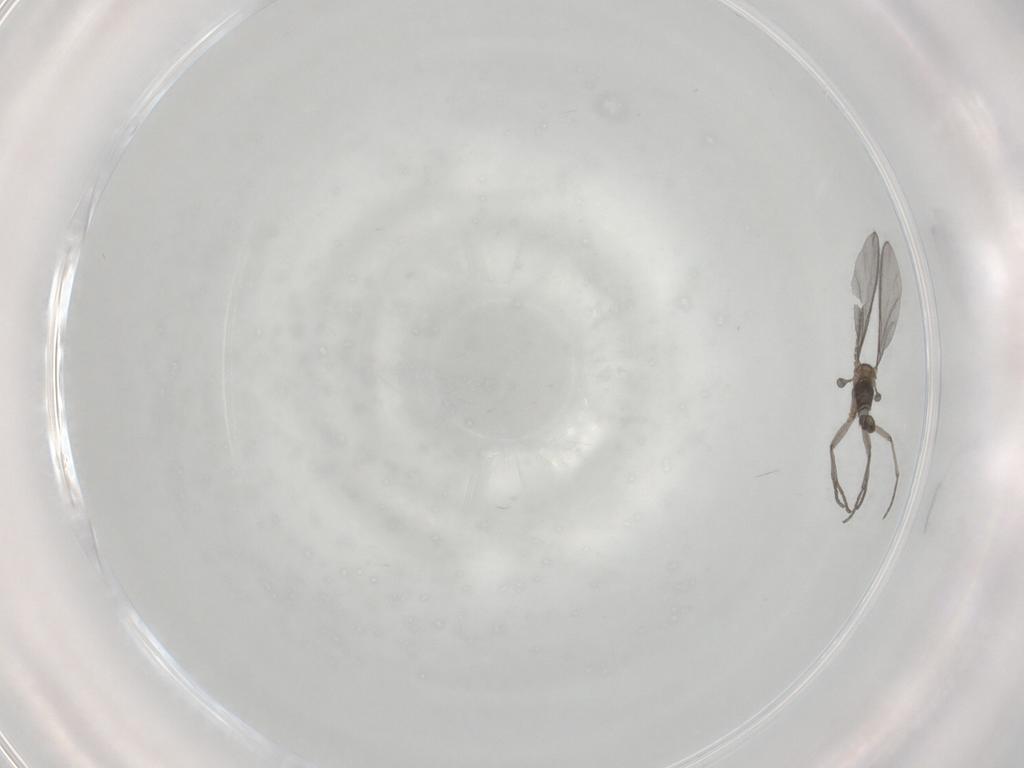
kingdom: Animalia
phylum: Arthropoda
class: Insecta
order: Diptera
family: Sciaridae
